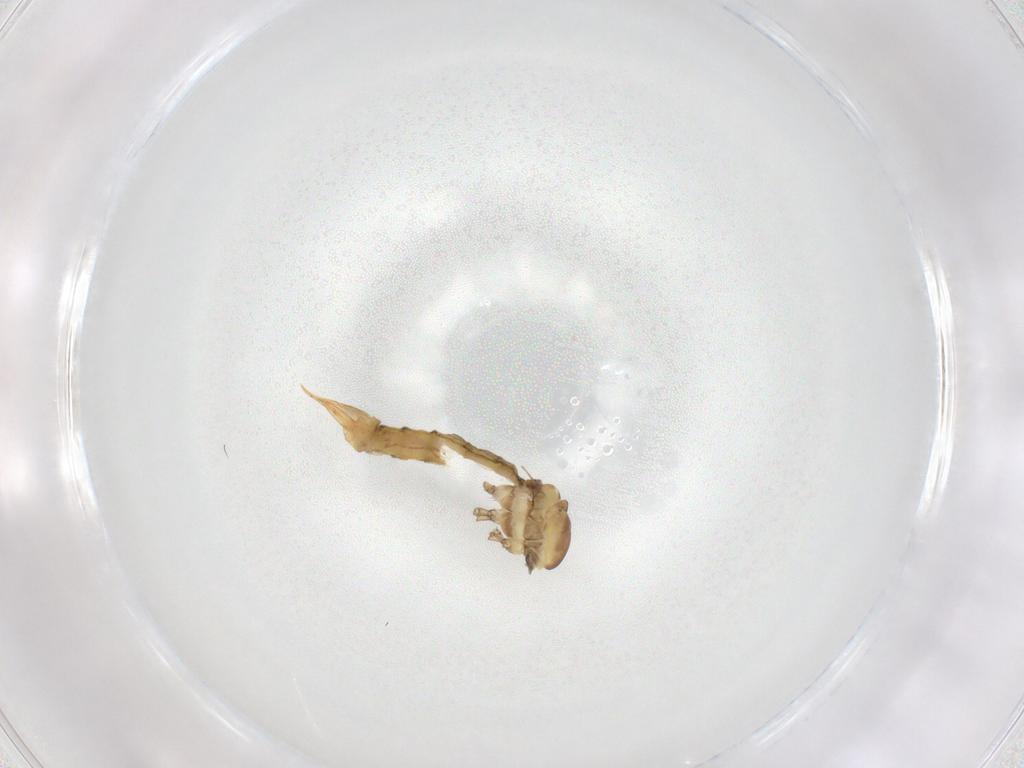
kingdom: Animalia
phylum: Arthropoda
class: Insecta
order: Diptera
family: Limoniidae
